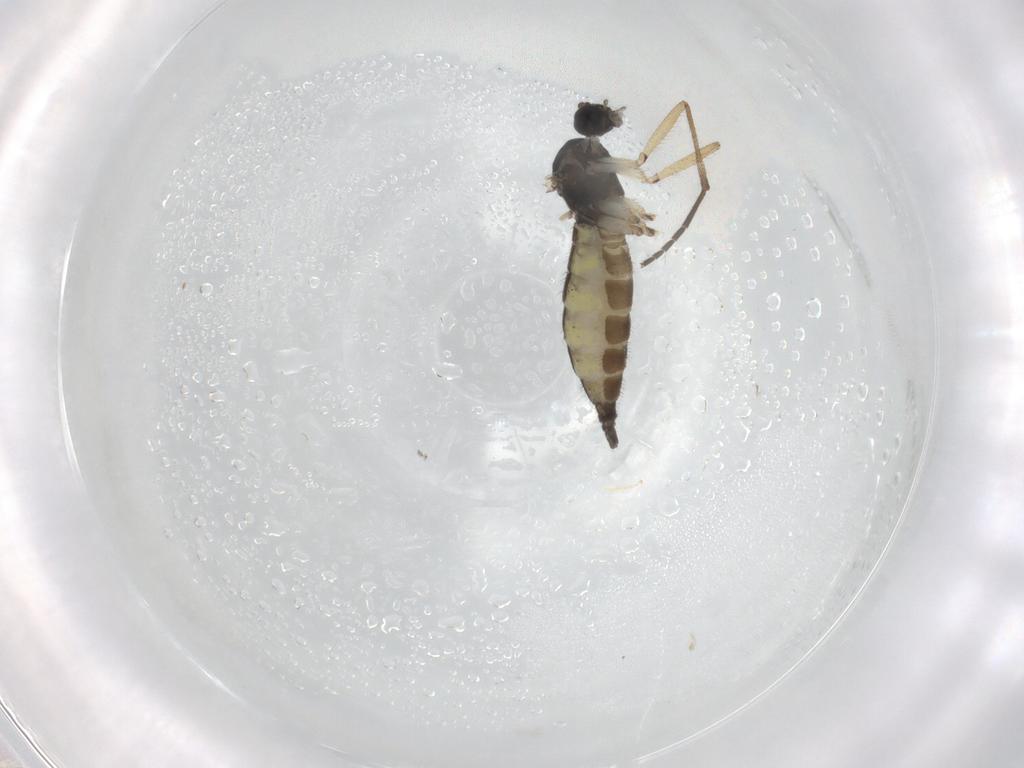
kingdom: Animalia
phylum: Arthropoda
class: Insecta
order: Diptera
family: Sciaridae
